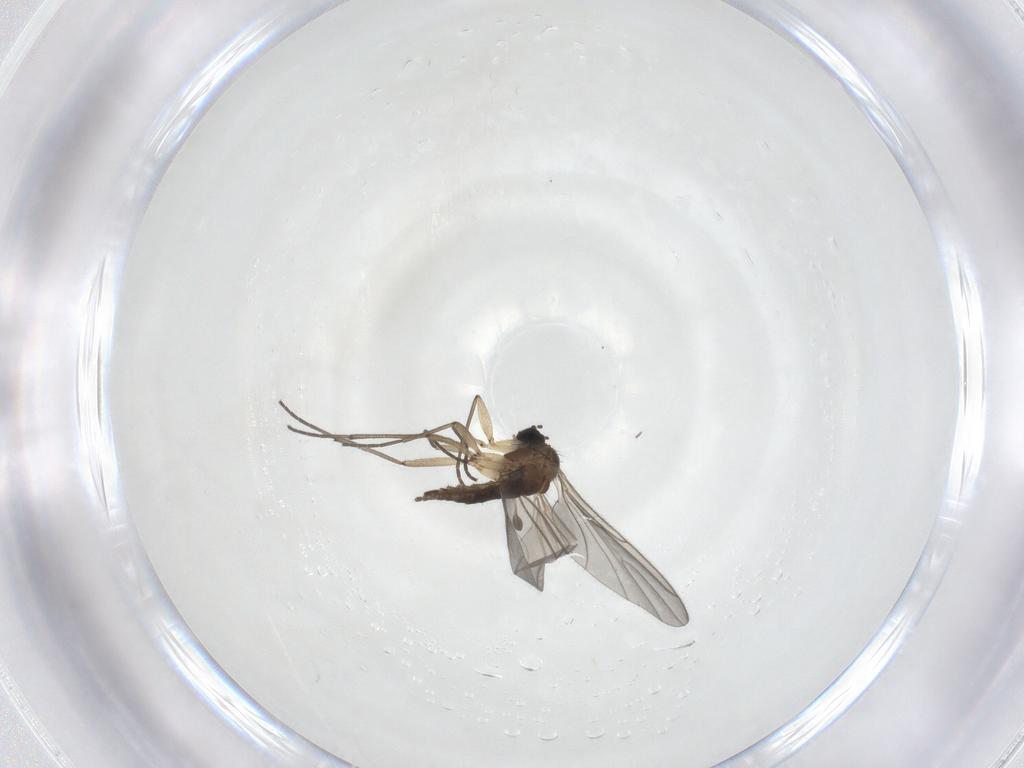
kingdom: Animalia
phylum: Arthropoda
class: Insecta
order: Diptera
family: Sciaridae
